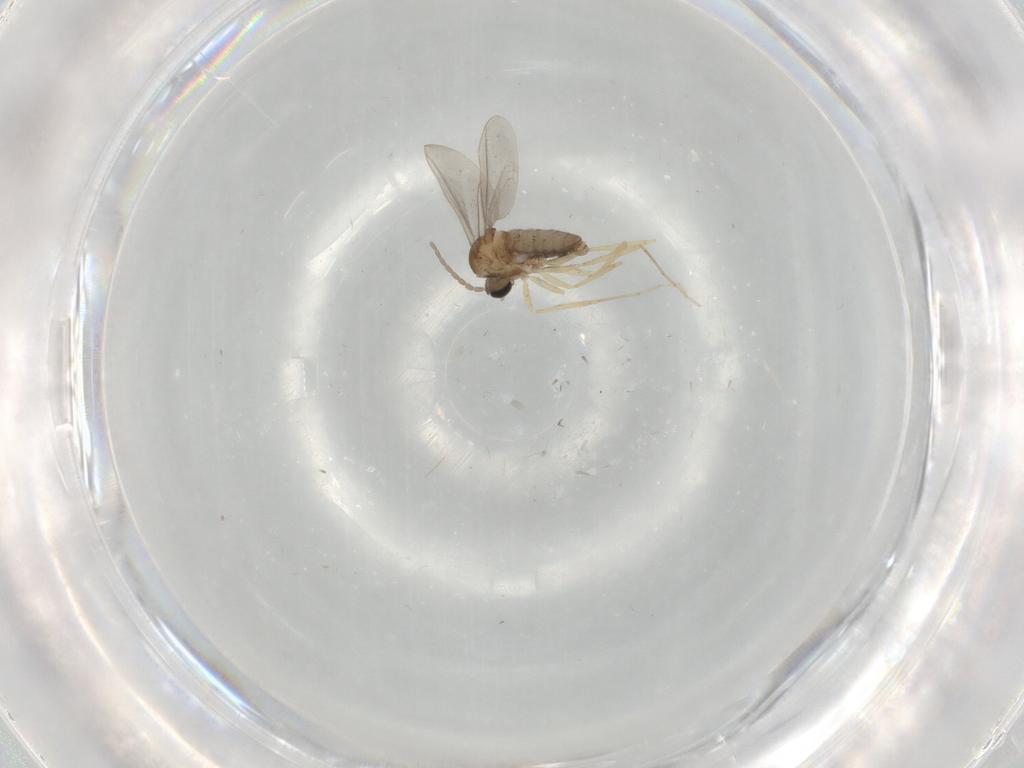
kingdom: Animalia
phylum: Arthropoda
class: Insecta
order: Diptera
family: Cecidomyiidae
